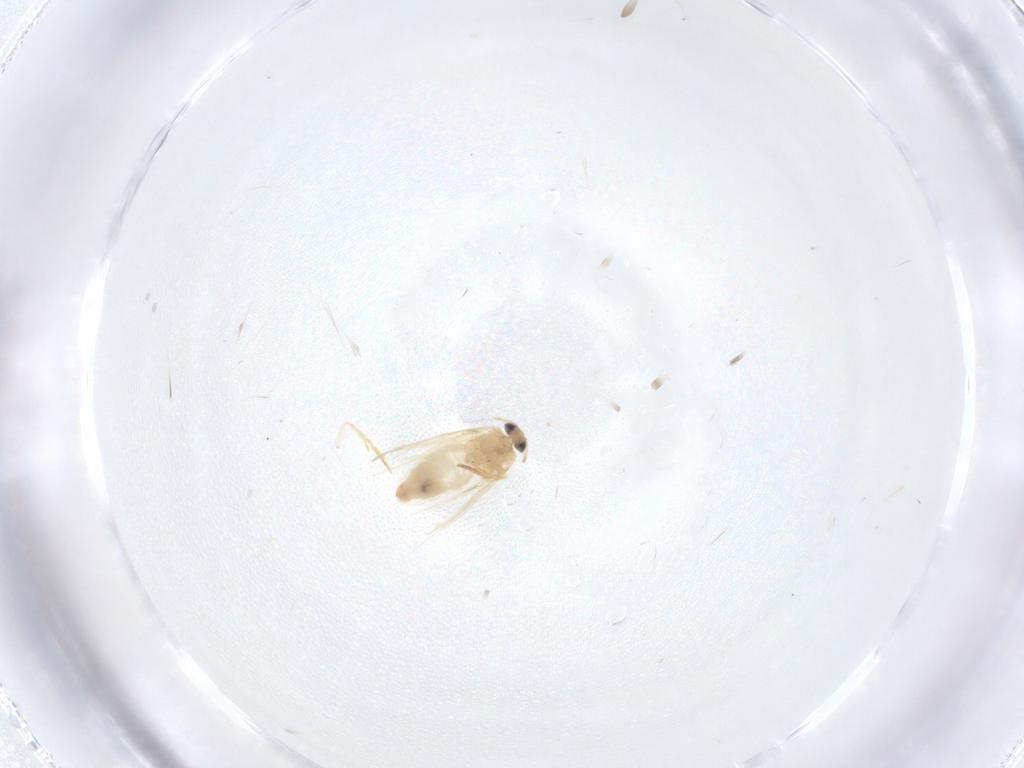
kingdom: Animalia
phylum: Arthropoda
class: Insecta
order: Lepidoptera
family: Crambidae
